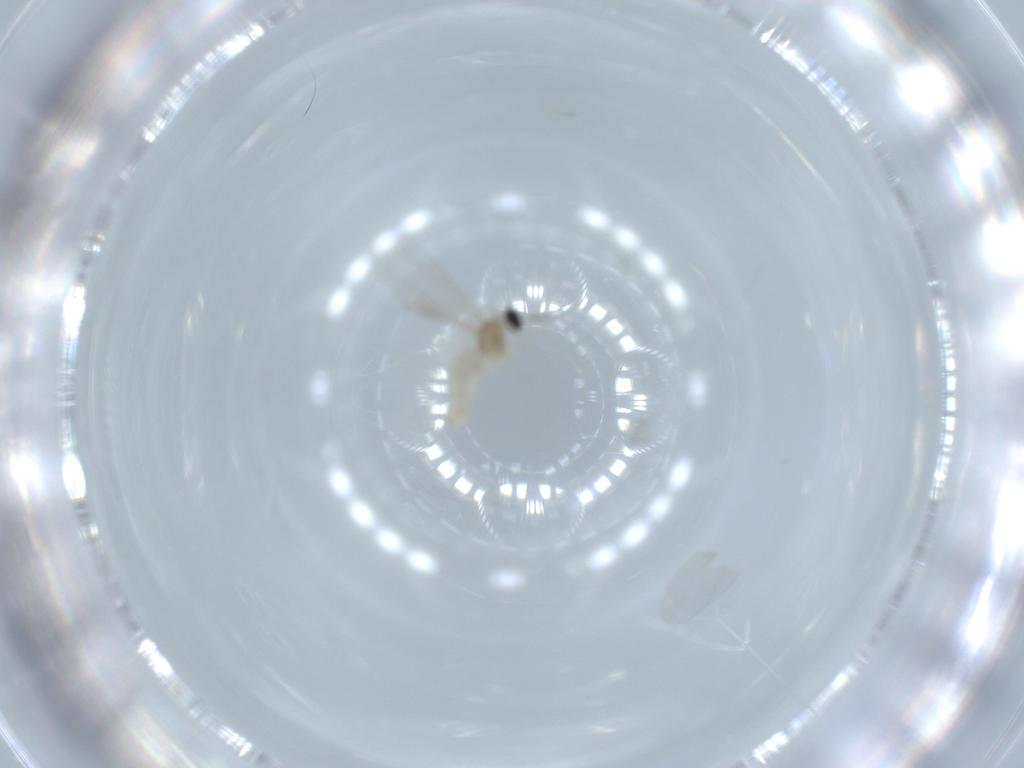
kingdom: Animalia
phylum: Arthropoda
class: Insecta
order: Diptera
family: Cecidomyiidae
